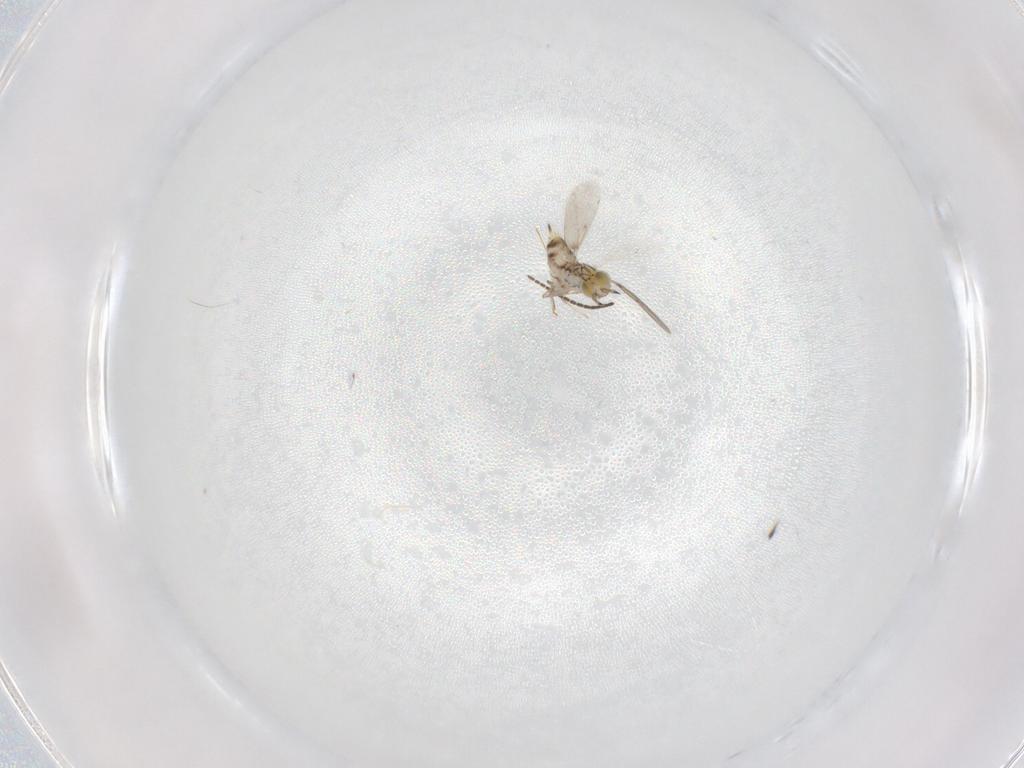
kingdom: Animalia
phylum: Arthropoda
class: Insecta
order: Hymenoptera
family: Aphelinidae
